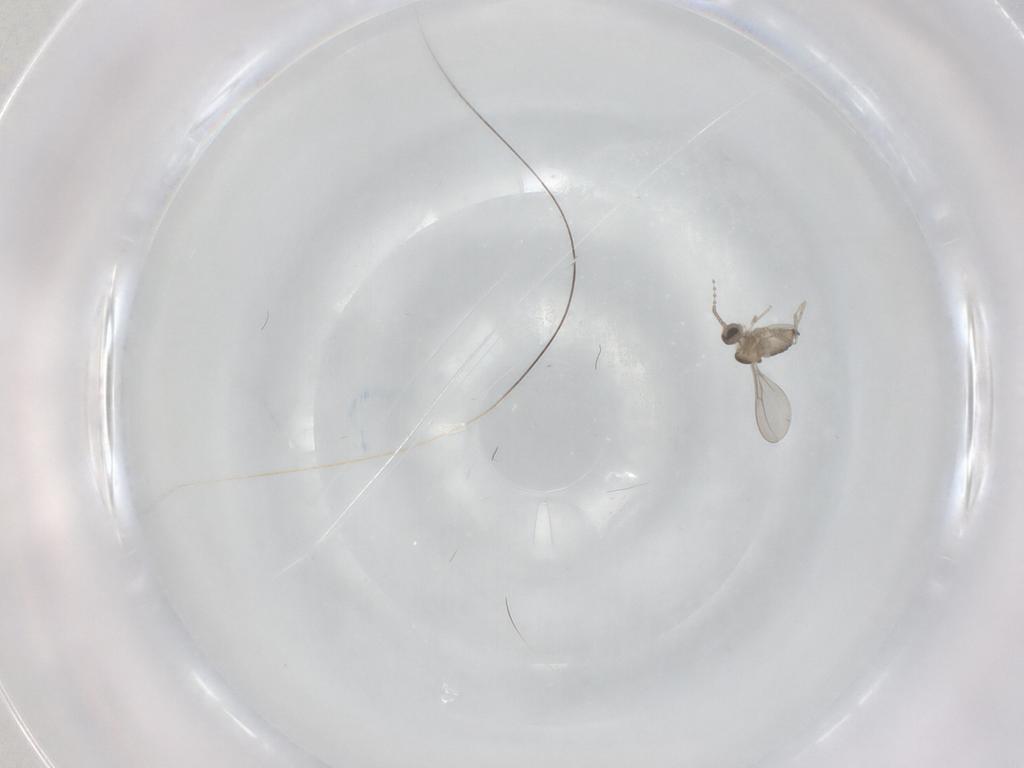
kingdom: Animalia
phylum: Arthropoda
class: Insecta
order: Diptera
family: Cecidomyiidae
